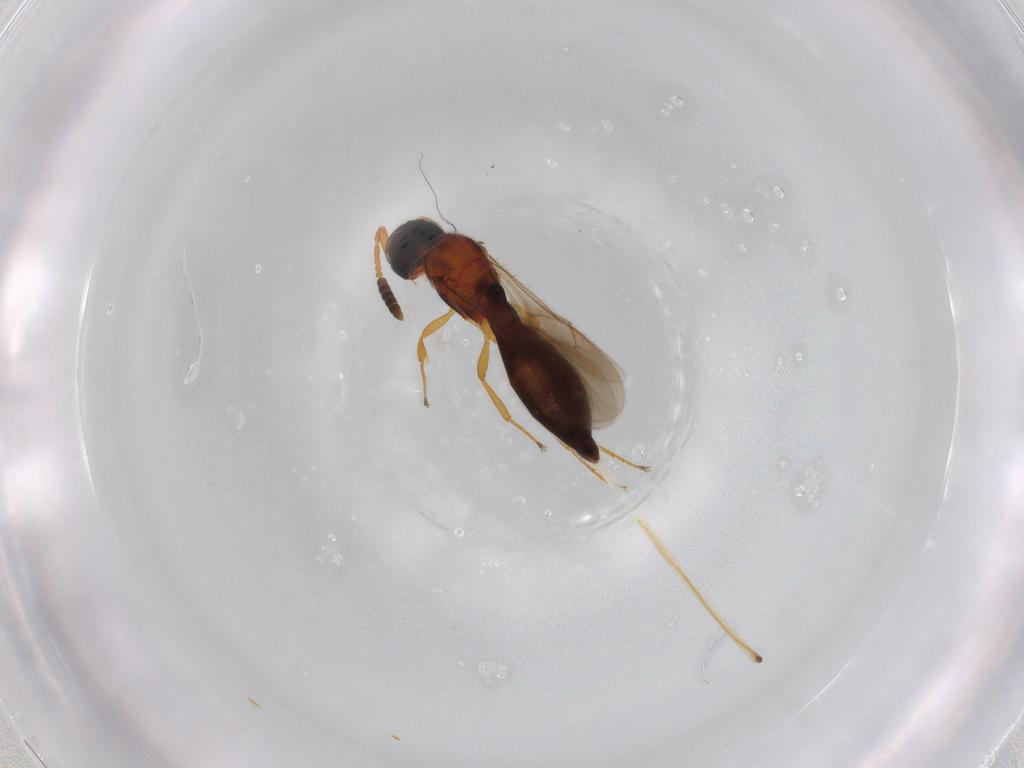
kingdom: Animalia
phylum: Arthropoda
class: Insecta
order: Hymenoptera
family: Scelionidae
